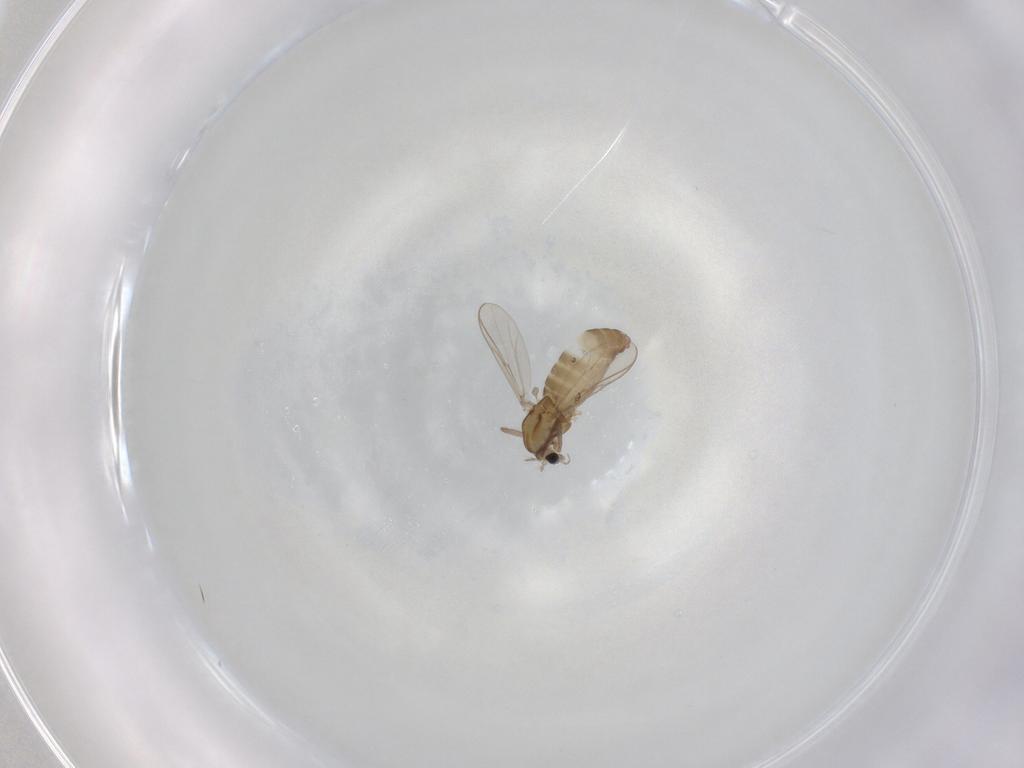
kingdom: Animalia
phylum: Arthropoda
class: Insecta
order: Diptera
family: Chironomidae
